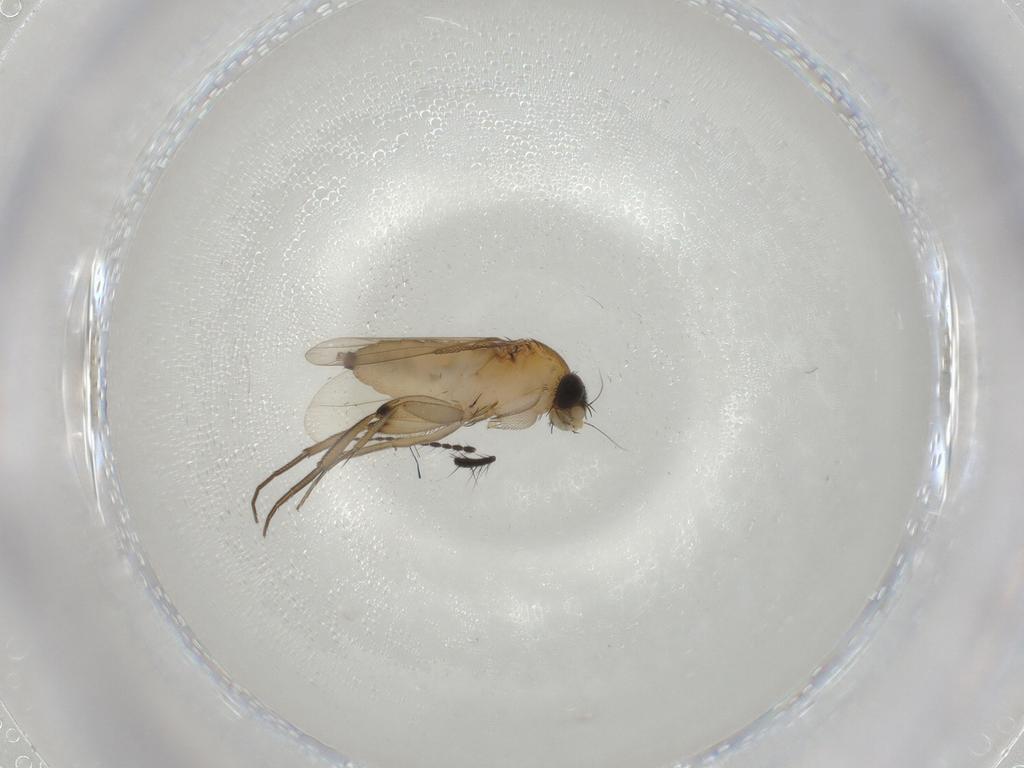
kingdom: Animalia
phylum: Arthropoda
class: Insecta
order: Diptera
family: Phoridae
